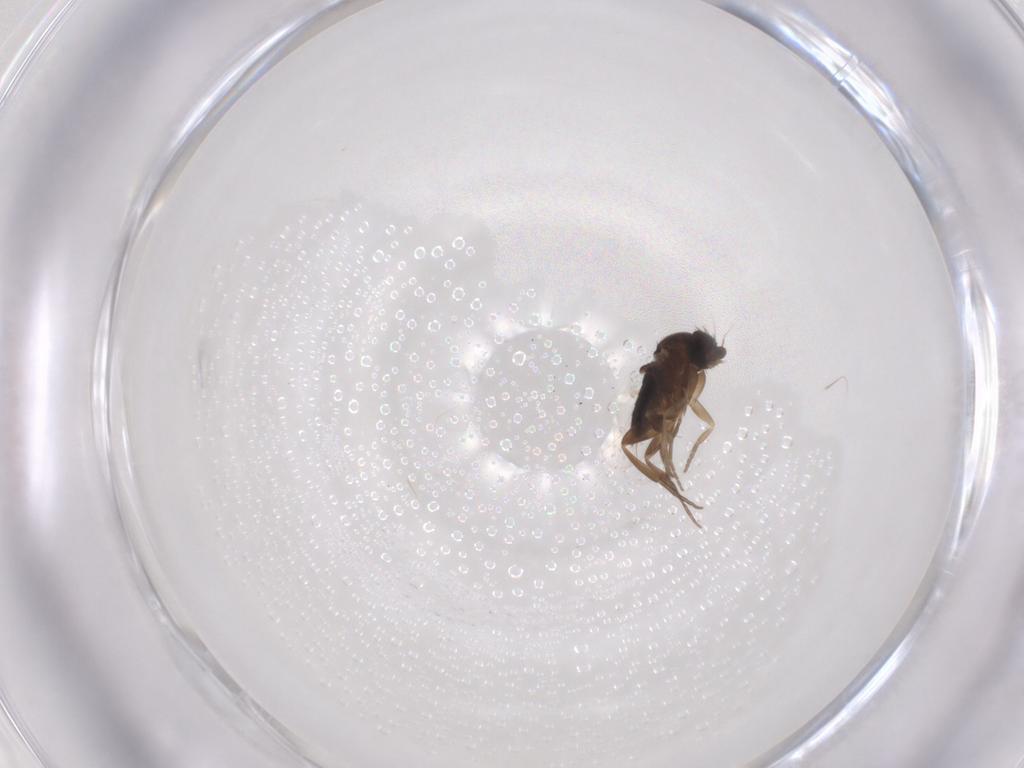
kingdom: Animalia
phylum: Arthropoda
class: Insecta
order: Diptera
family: Phoridae
